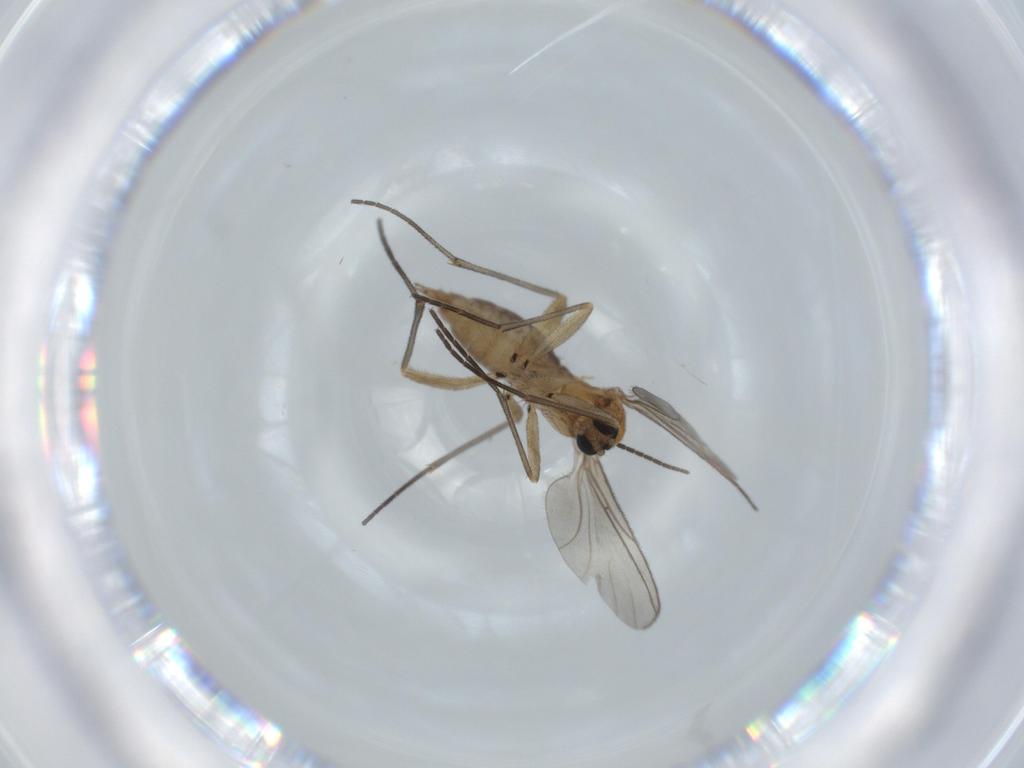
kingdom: Animalia
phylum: Arthropoda
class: Insecta
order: Diptera
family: Sciaridae
